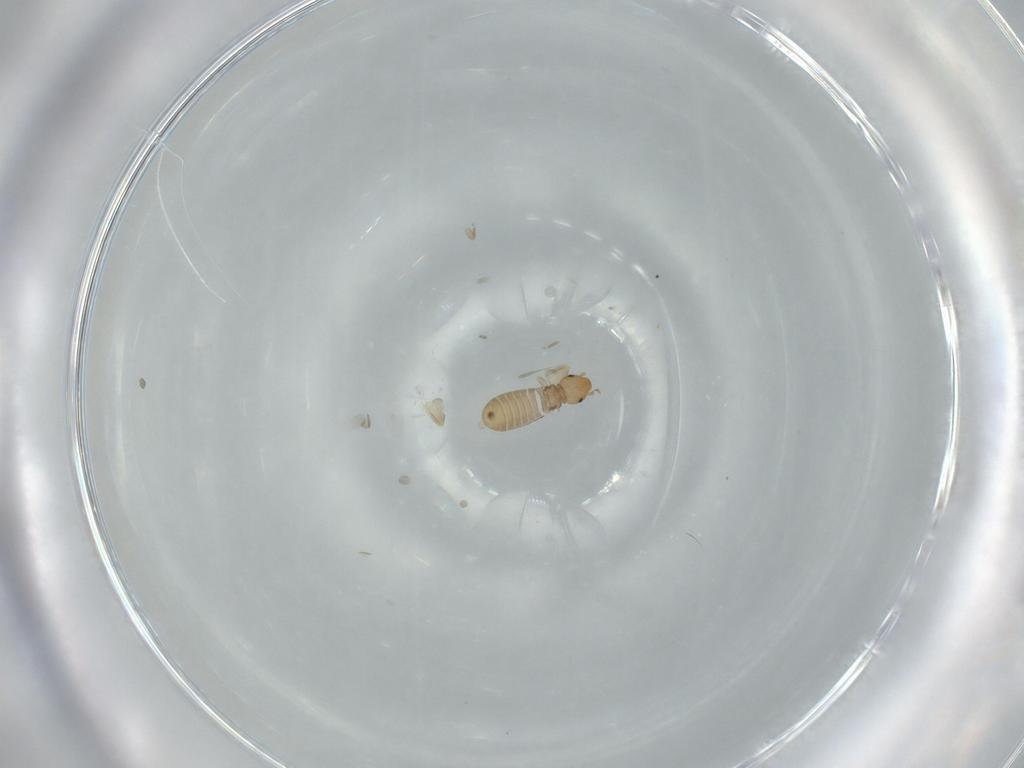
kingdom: Animalia
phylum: Arthropoda
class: Insecta
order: Psocodea
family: Liposcelididae
